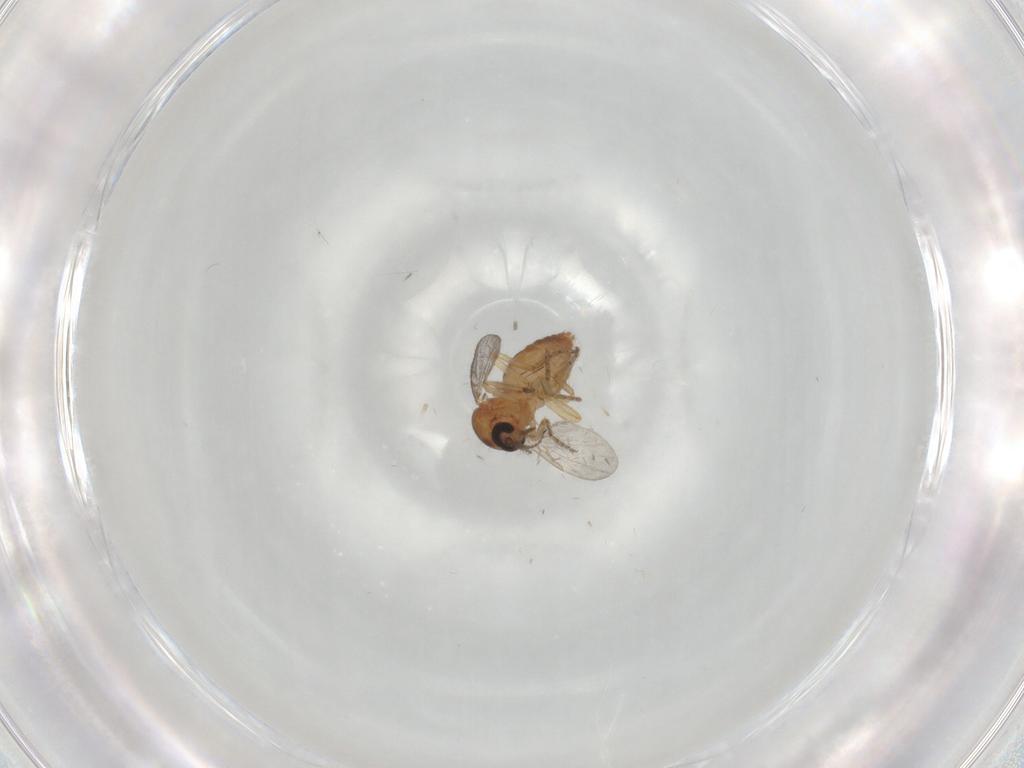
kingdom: Animalia
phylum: Arthropoda
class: Insecta
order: Diptera
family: Ceratopogonidae
